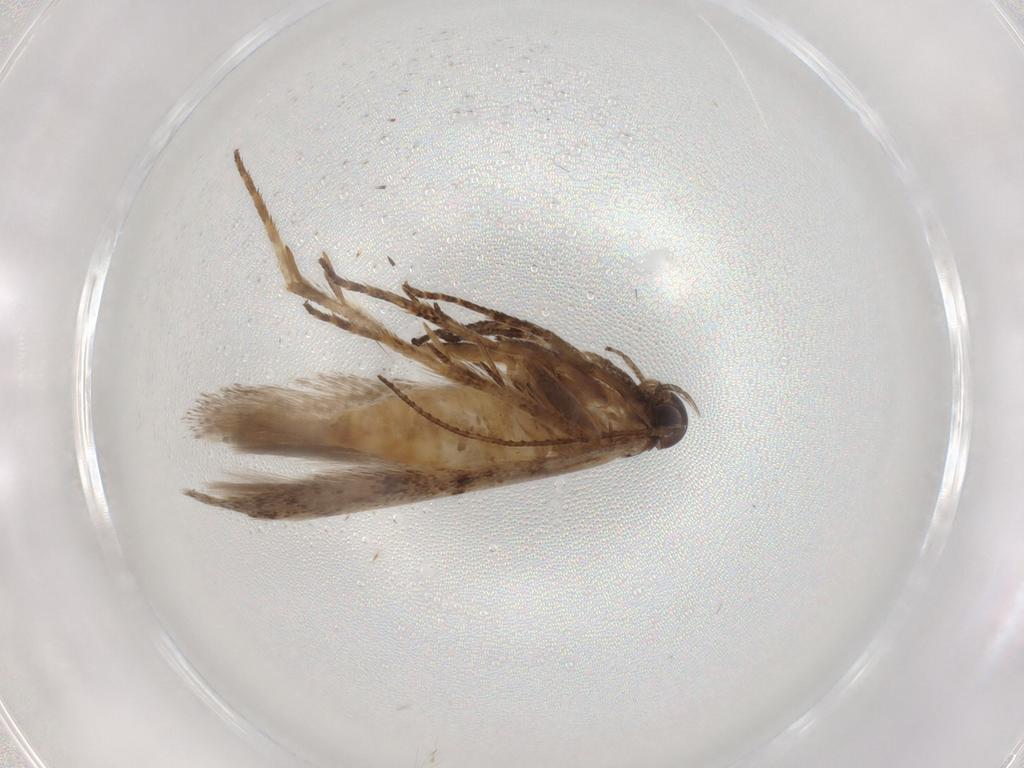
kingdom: Animalia
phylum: Arthropoda
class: Insecta
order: Lepidoptera
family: Gelechiidae
